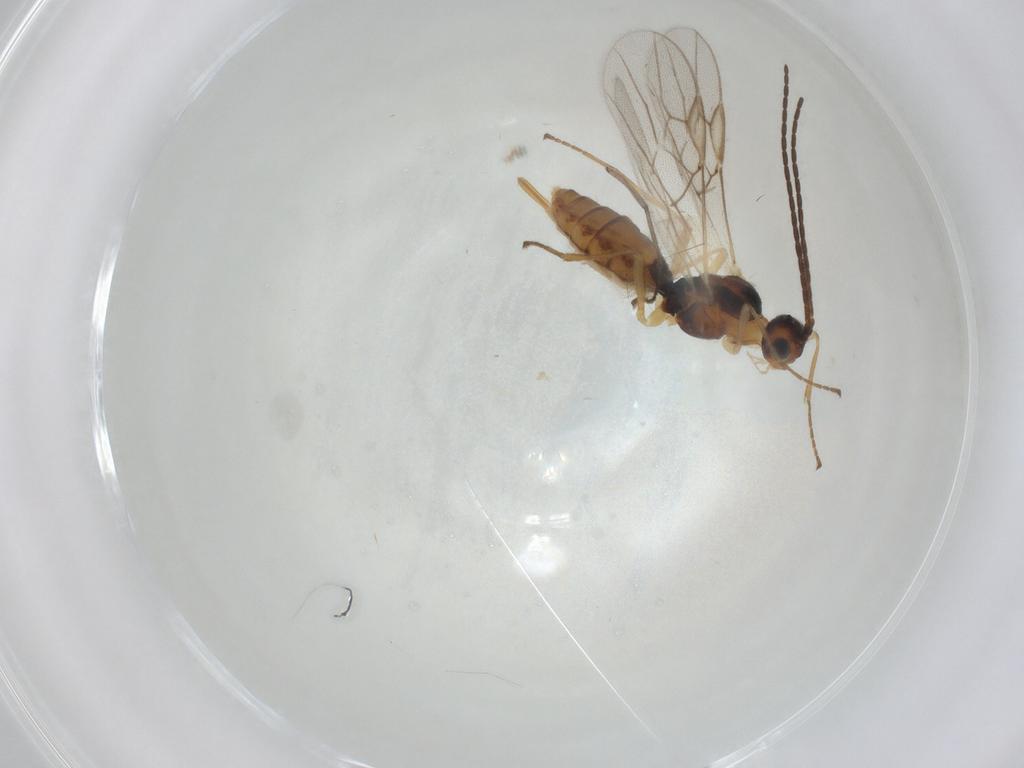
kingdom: Animalia
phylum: Arthropoda
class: Insecta
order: Hymenoptera
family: Braconidae
